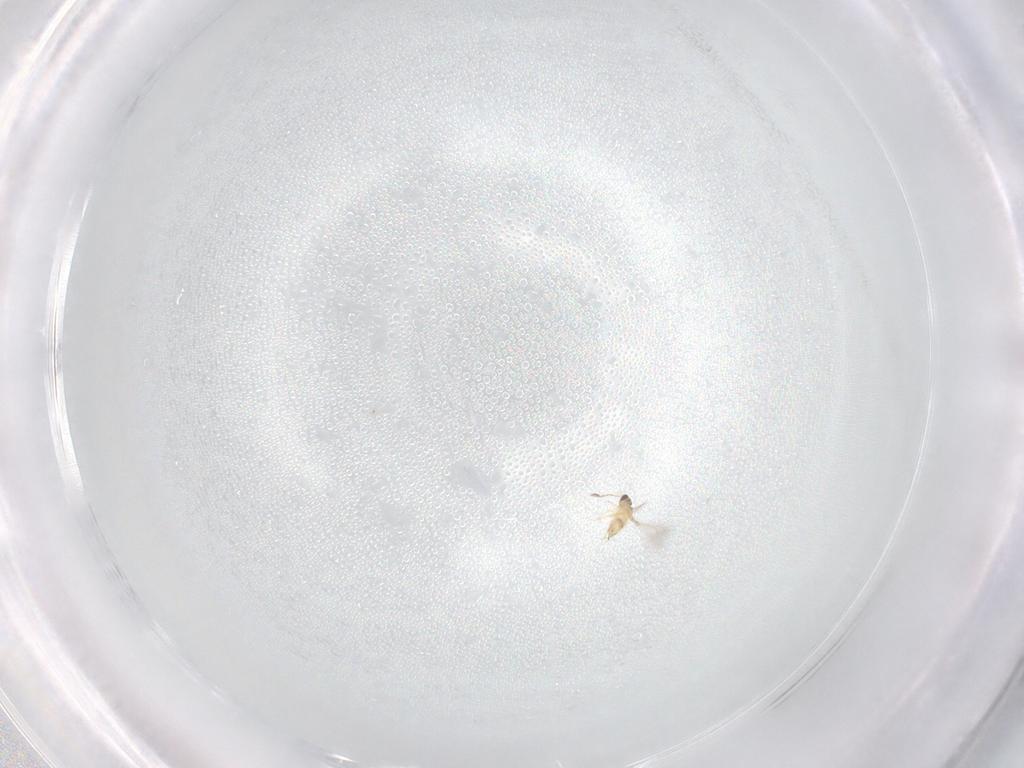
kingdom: Animalia
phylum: Arthropoda
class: Insecta
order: Hymenoptera
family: Mymaridae
